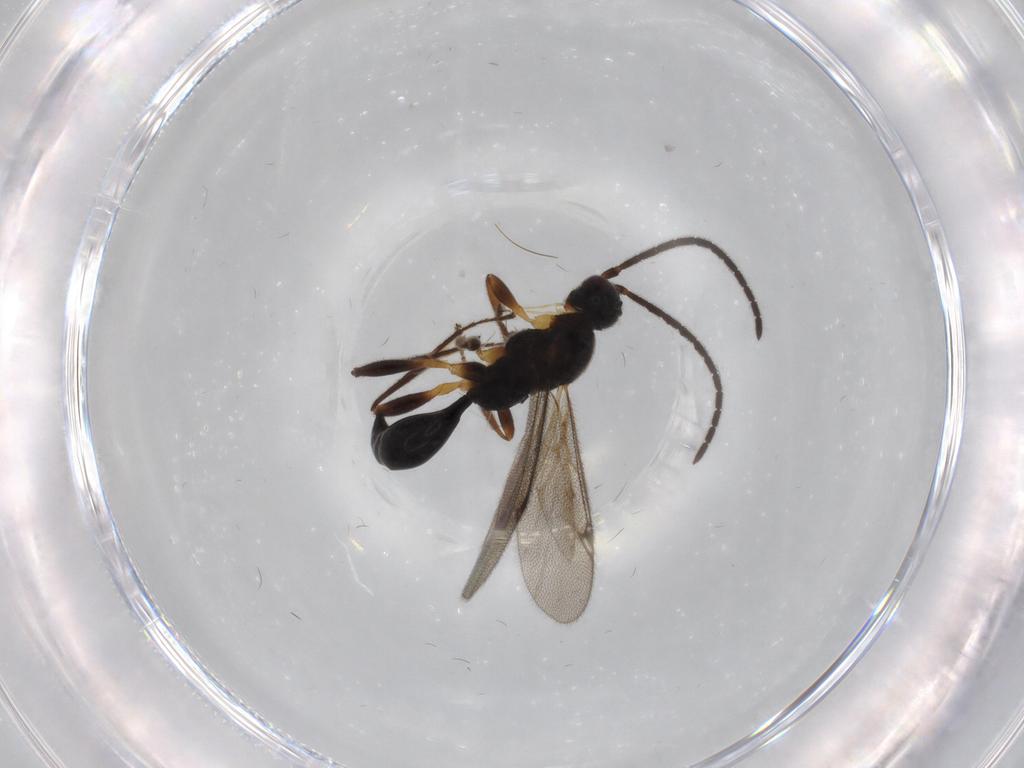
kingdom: Animalia
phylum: Arthropoda
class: Insecta
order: Hymenoptera
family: Proctotrupidae
